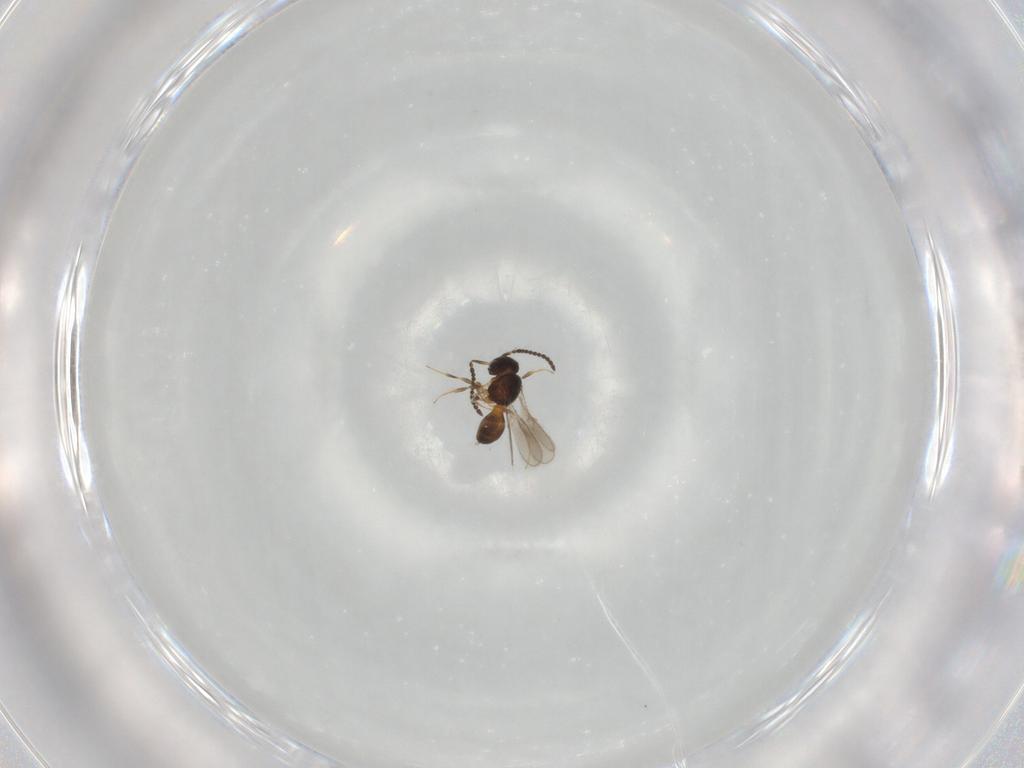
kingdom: Animalia
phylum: Arthropoda
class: Insecta
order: Hymenoptera
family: Scelionidae
